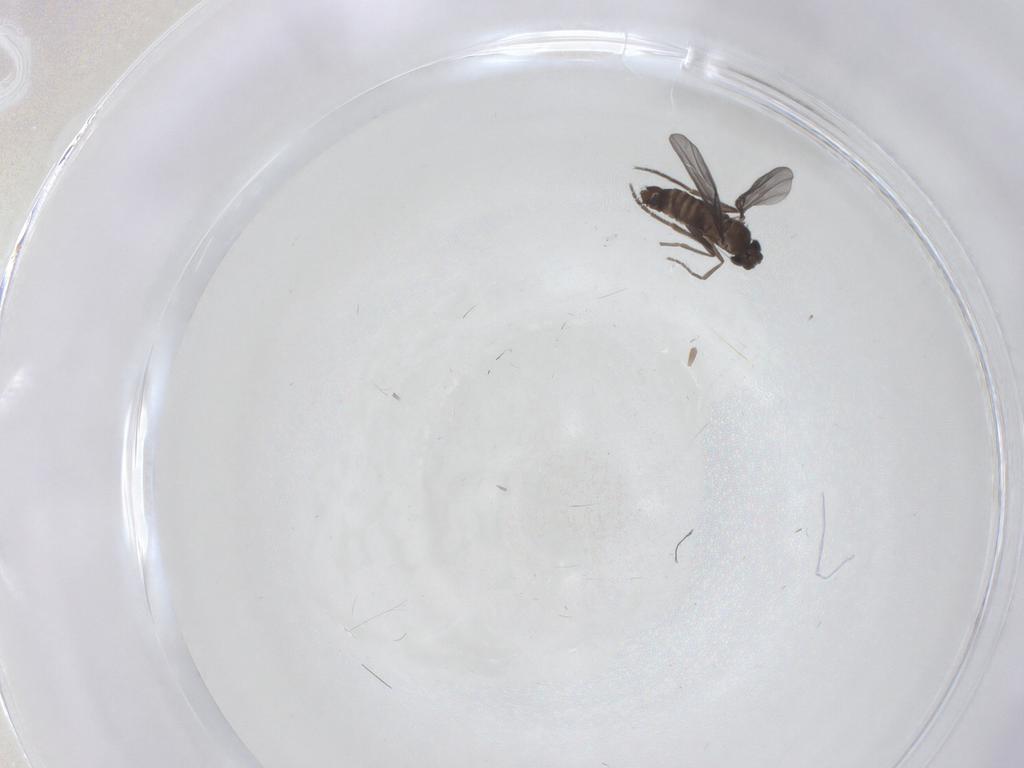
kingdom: Animalia
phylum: Arthropoda
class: Insecta
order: Diptera
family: Phoridae
